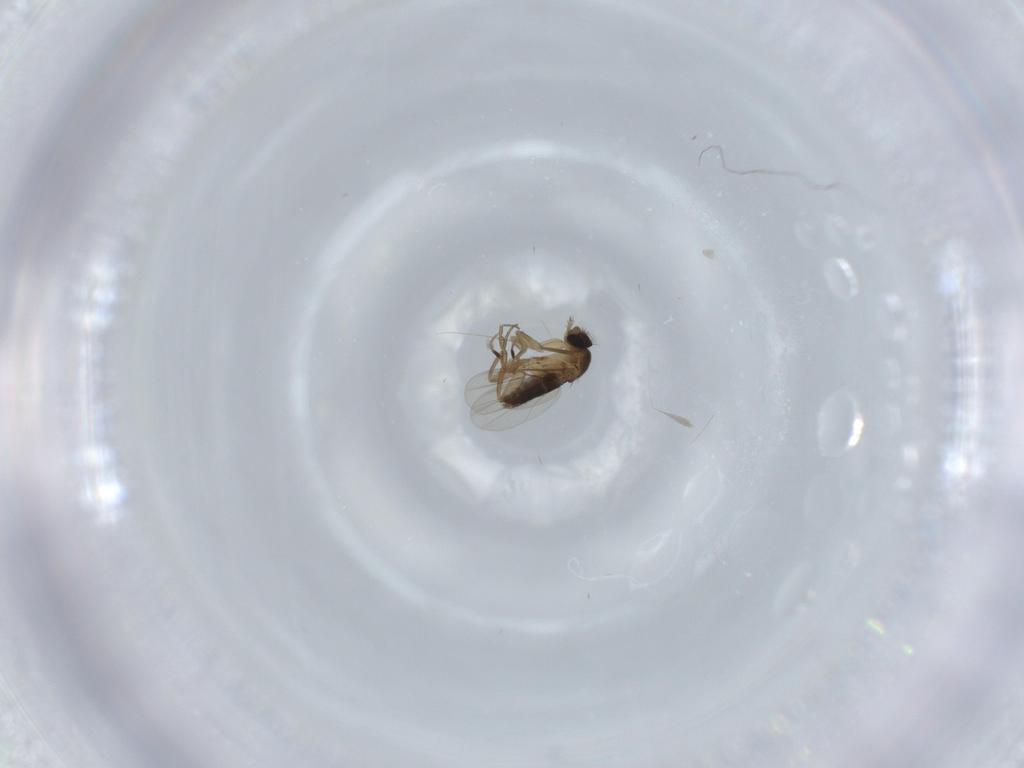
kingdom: Animalia
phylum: Arthropoda
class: Insecta
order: Diptera
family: Phoridae
